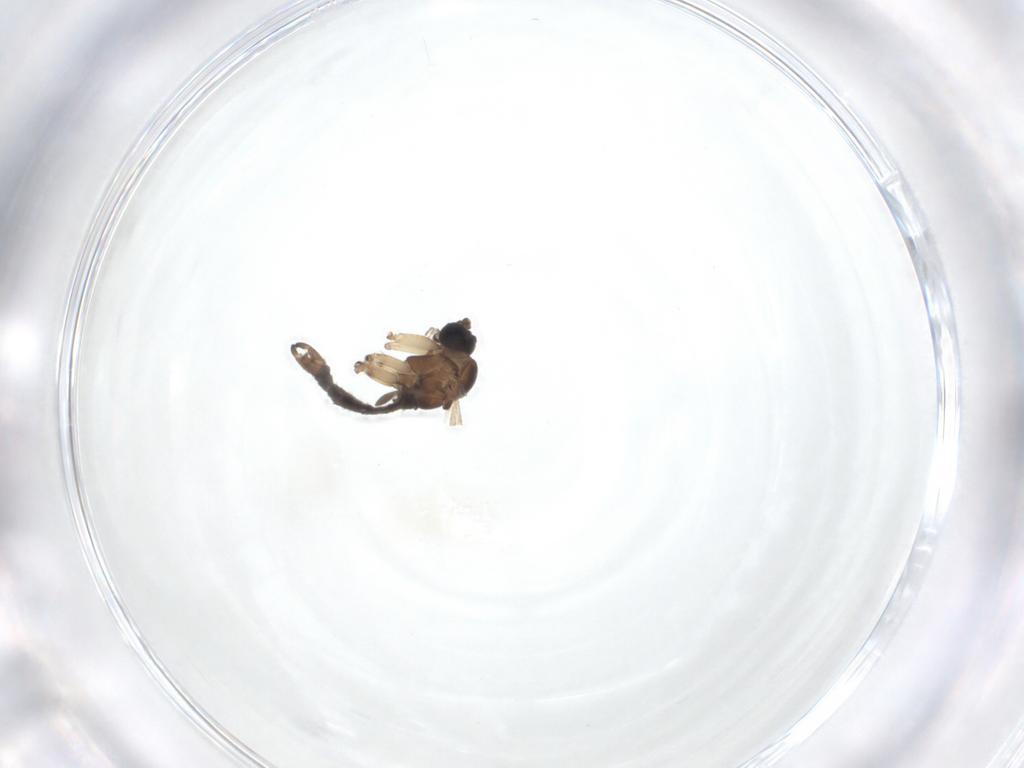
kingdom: Animalia
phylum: Arthropoda
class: Insecta
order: Diptera
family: Sciaridae
